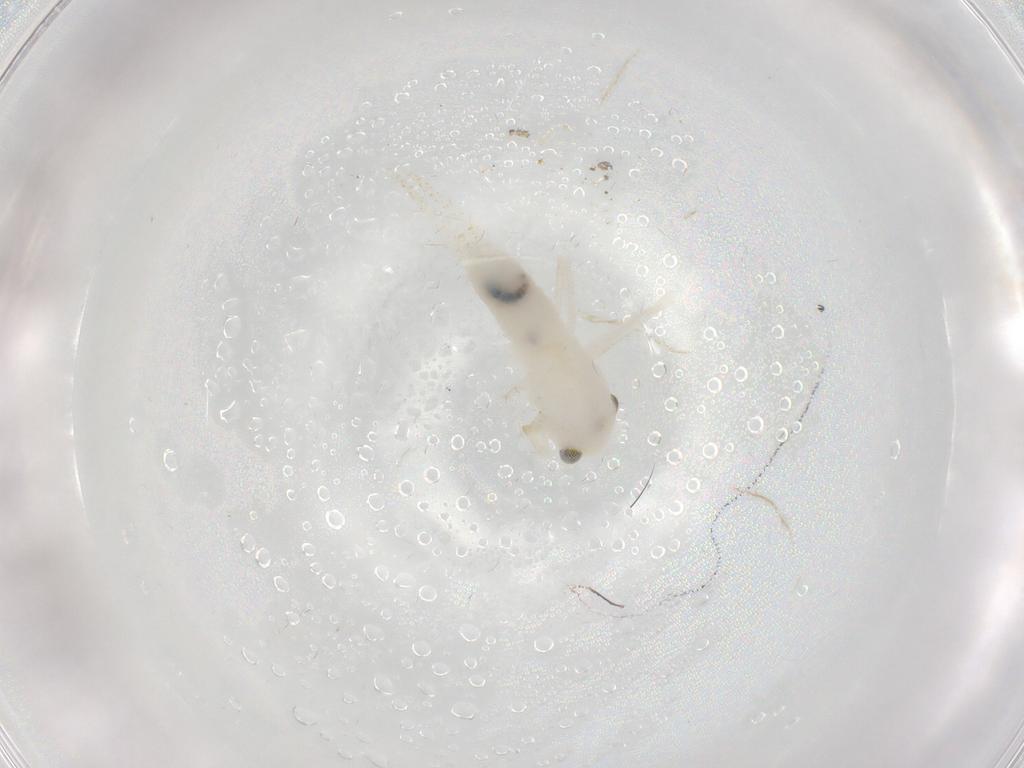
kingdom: Animalia
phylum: Arthropoda
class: Insecta
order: Orthoptera
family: Trigonidiidae
